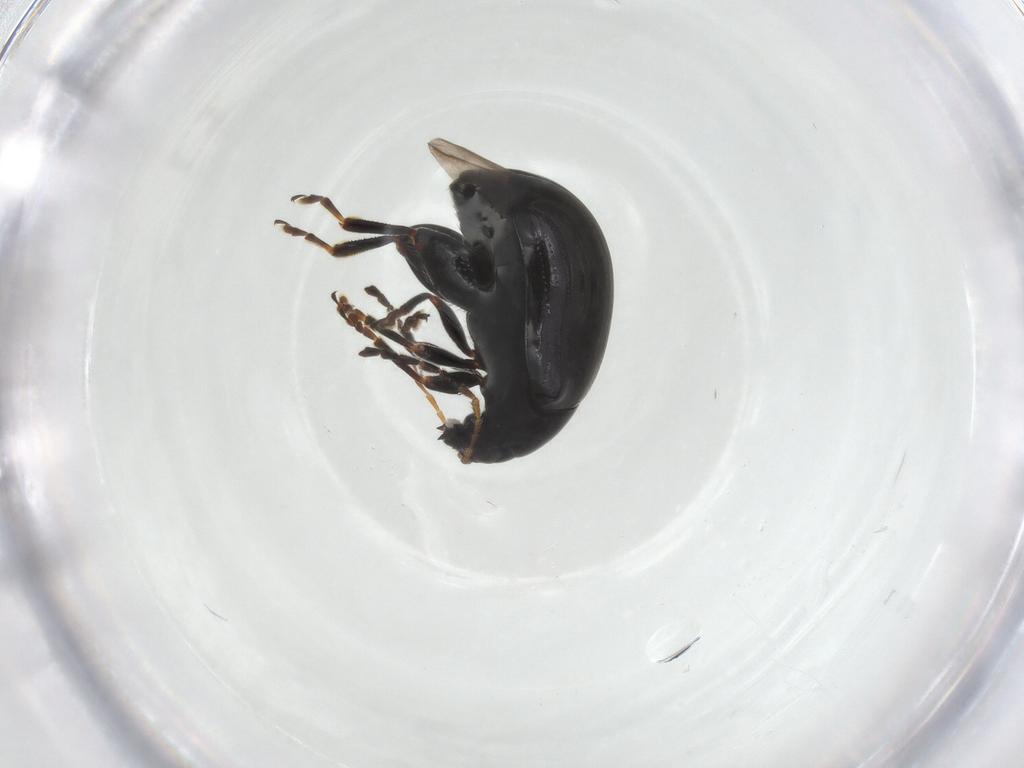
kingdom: Animalia
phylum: Arthropoda
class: Insecta
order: Coleoptera
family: Chrysomelidae
